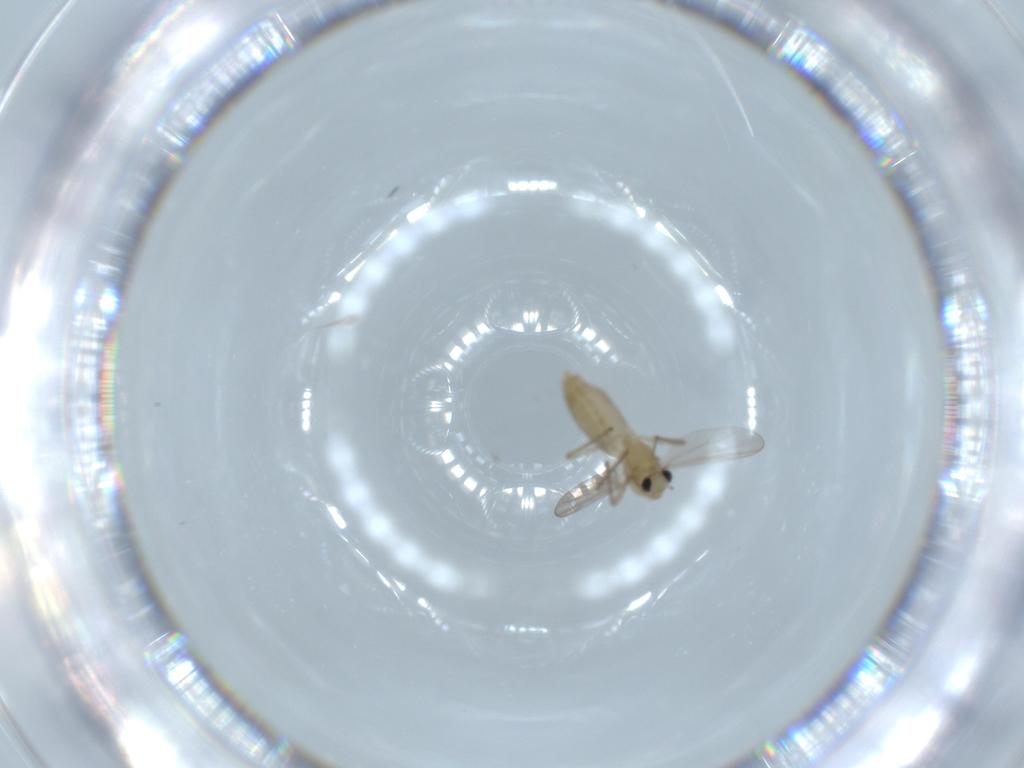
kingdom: Animalia
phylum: Arthropoda
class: Insecta
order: Diptera
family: Chironomidae
